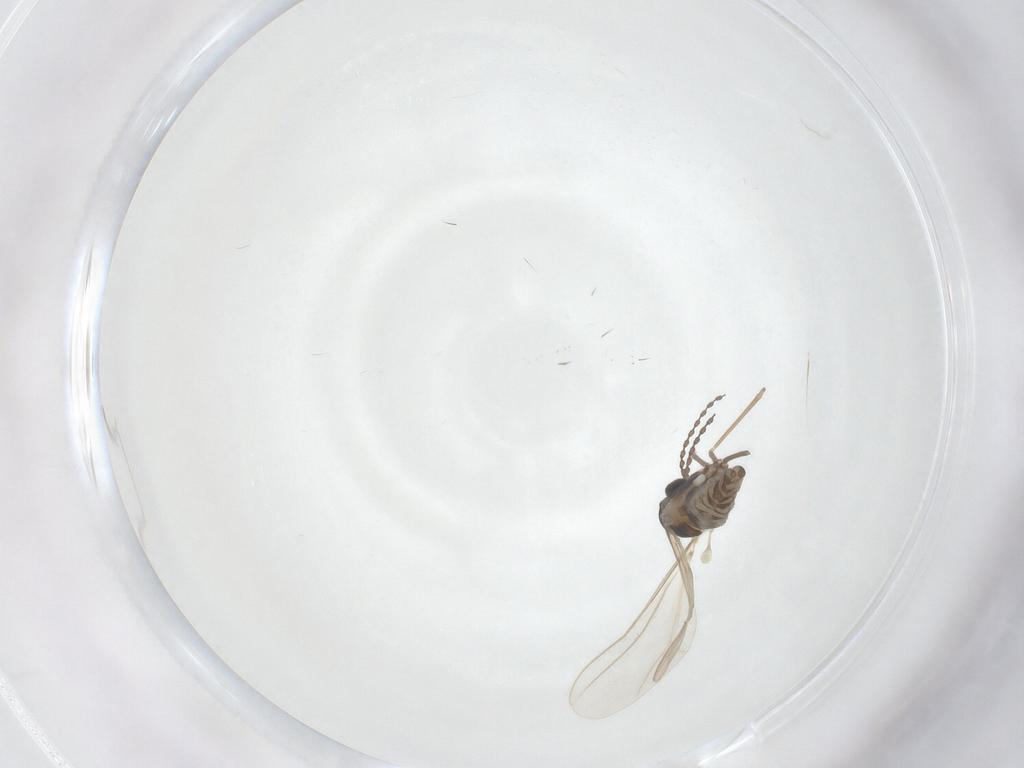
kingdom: Animalia
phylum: Arthropoda
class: Insecta
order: Diptera
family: Cecidomyiidae
